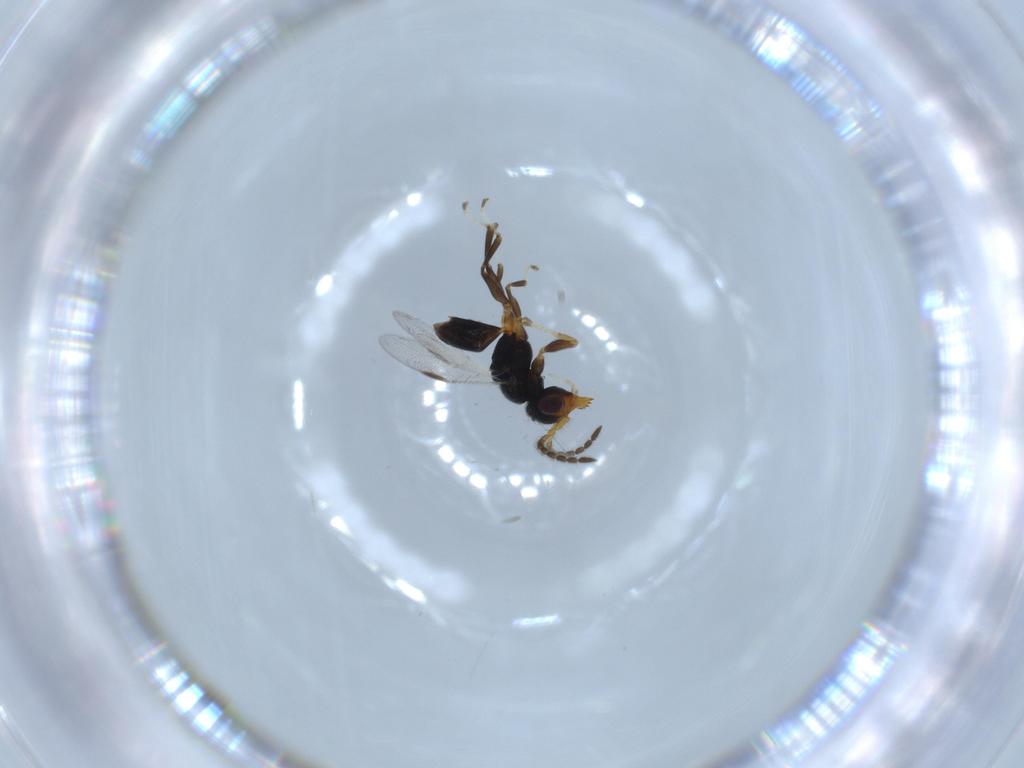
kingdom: Animalia
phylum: Arthropoda
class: Insecta
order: Hymenoptera
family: Dryinidae
